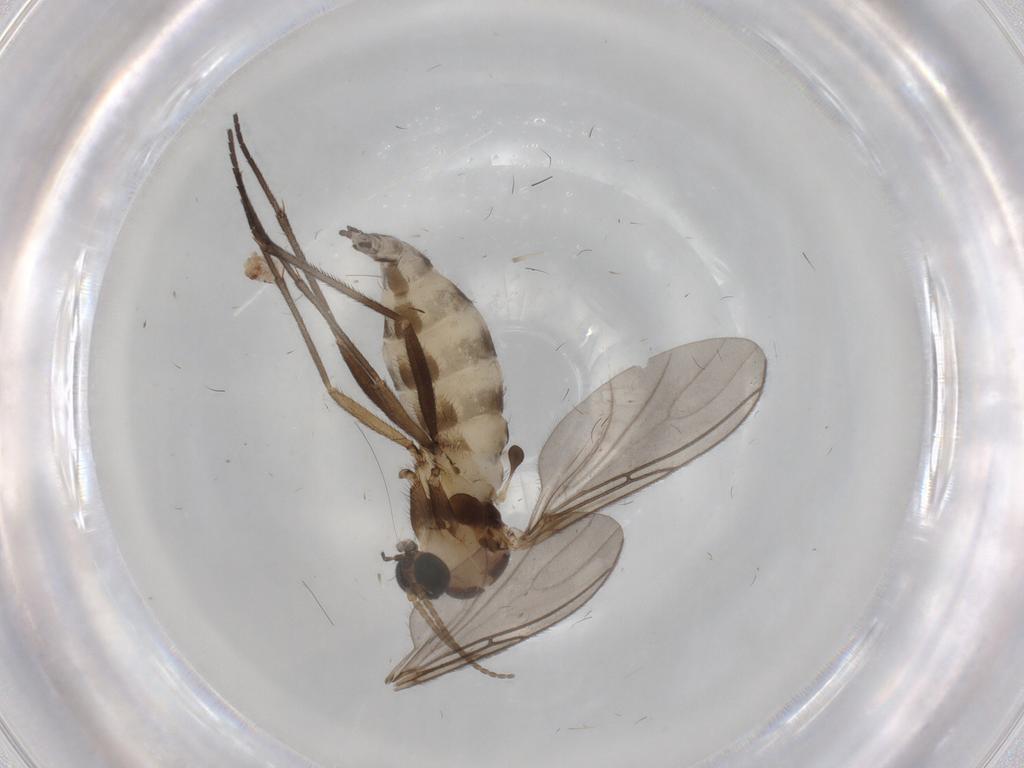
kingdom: Animalia
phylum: Arthropoda
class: Insecta
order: Diptera
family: Sciaridae
